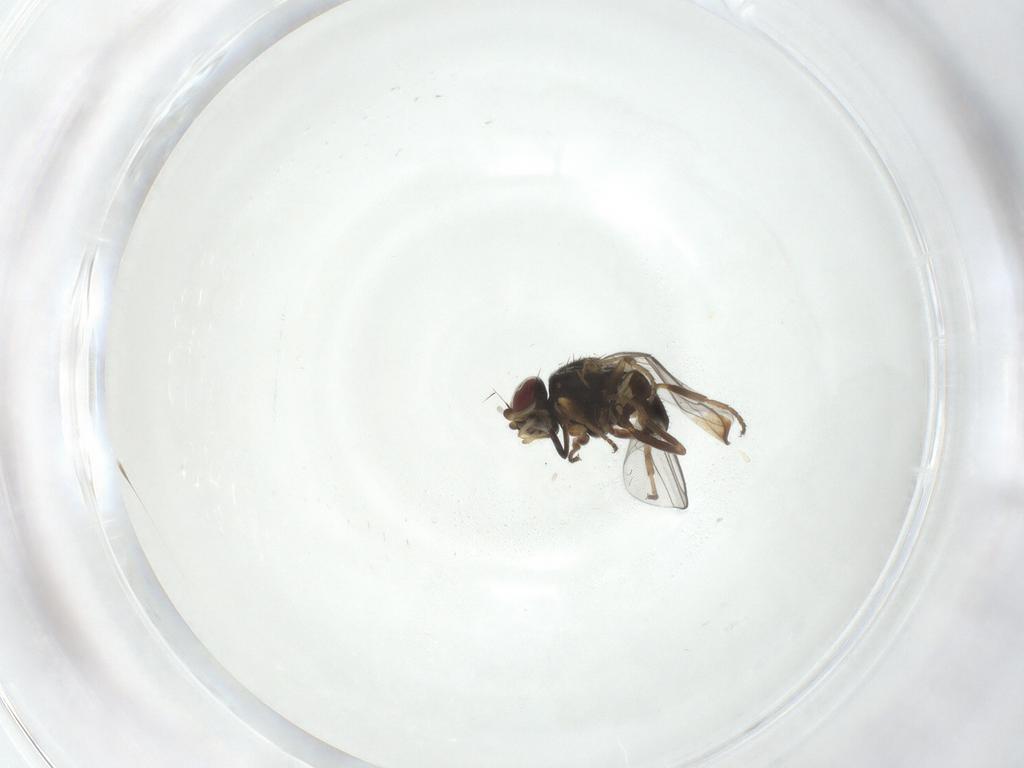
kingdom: Animalia
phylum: Arthropoda
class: Insecta
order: Diptera
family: Chloropidae
